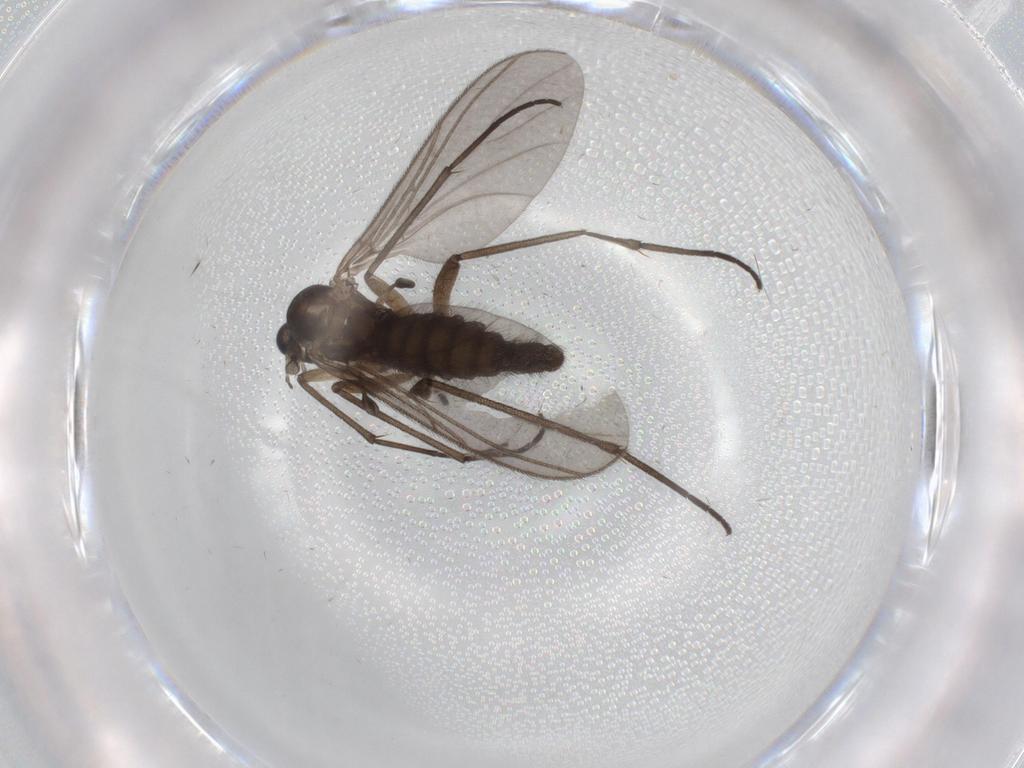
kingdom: Animalia
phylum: Arthropoda
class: Insecta
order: Diptera
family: Sciaridae
